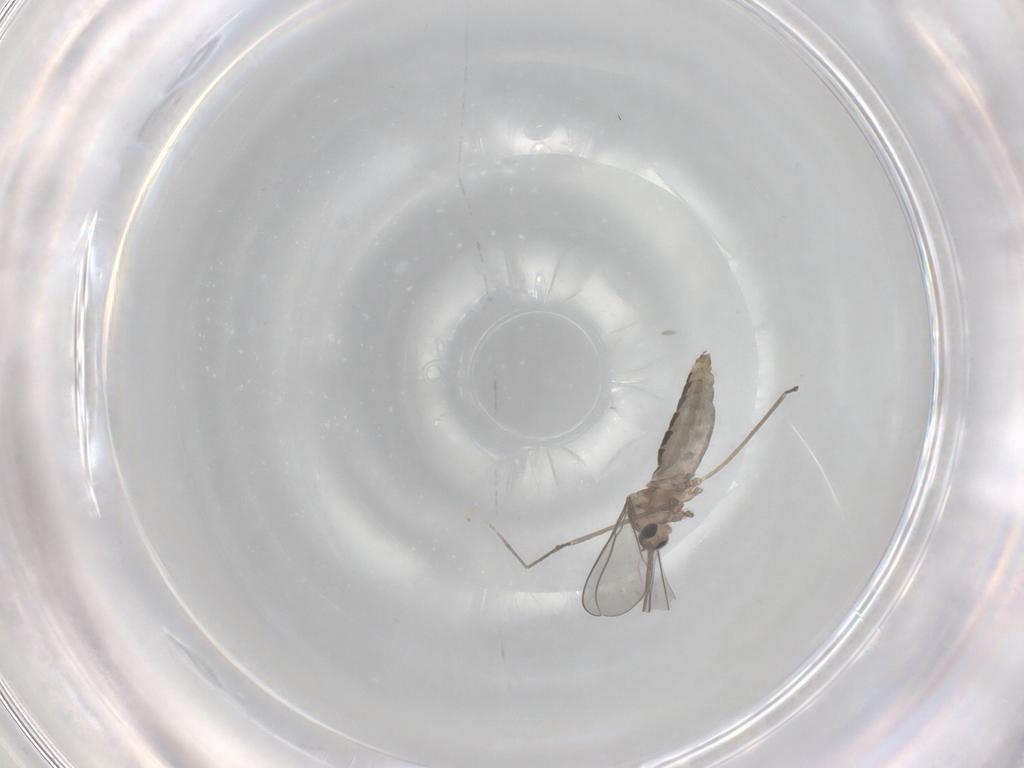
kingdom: Animalia
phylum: Arthropoda
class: Insecta
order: Diptera
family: Cecidomyiidae
